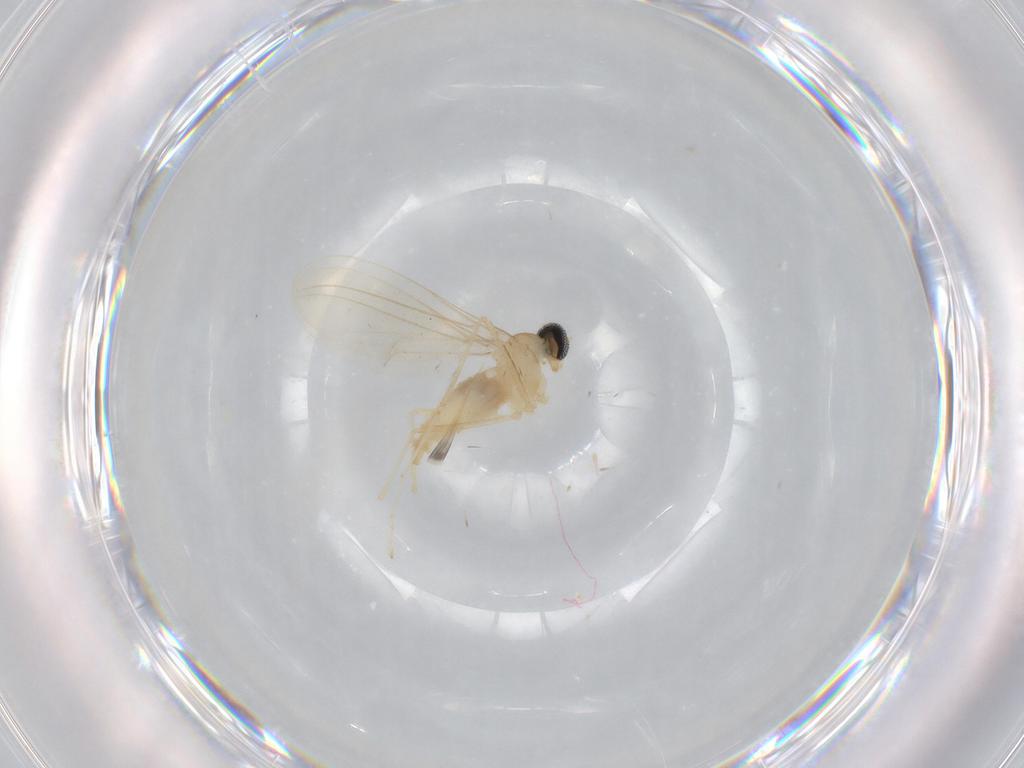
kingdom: Animalia
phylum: Arthropoda
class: Insecta
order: Diptera
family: Cecidomyiidae
